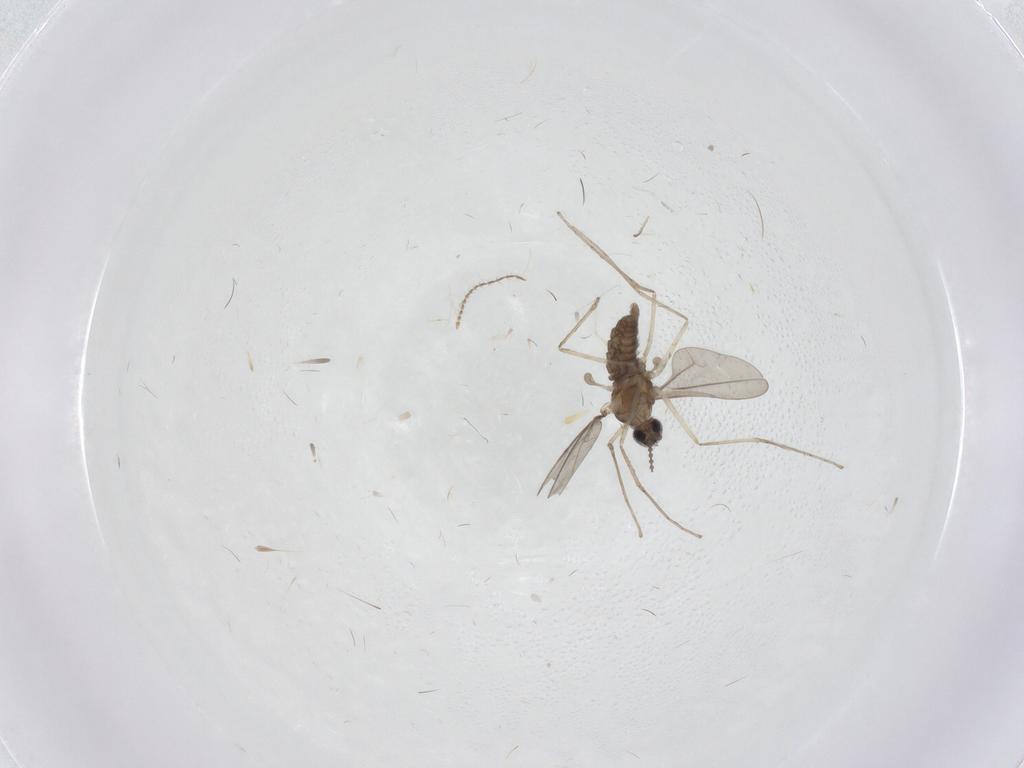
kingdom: Animalia
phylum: Arthropoda
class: Insecta
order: Diptera
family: Cecidomyiidae
